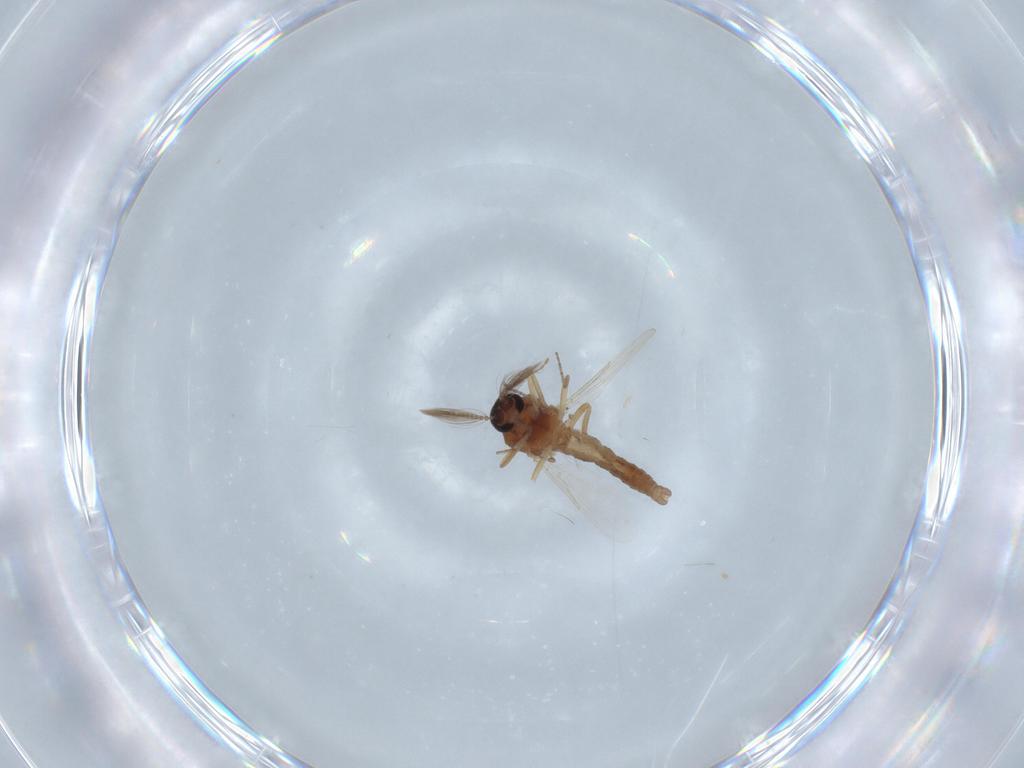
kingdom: Animalia
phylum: Arthropoda
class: Insecta
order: Diptera
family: Ceratopogonidae
